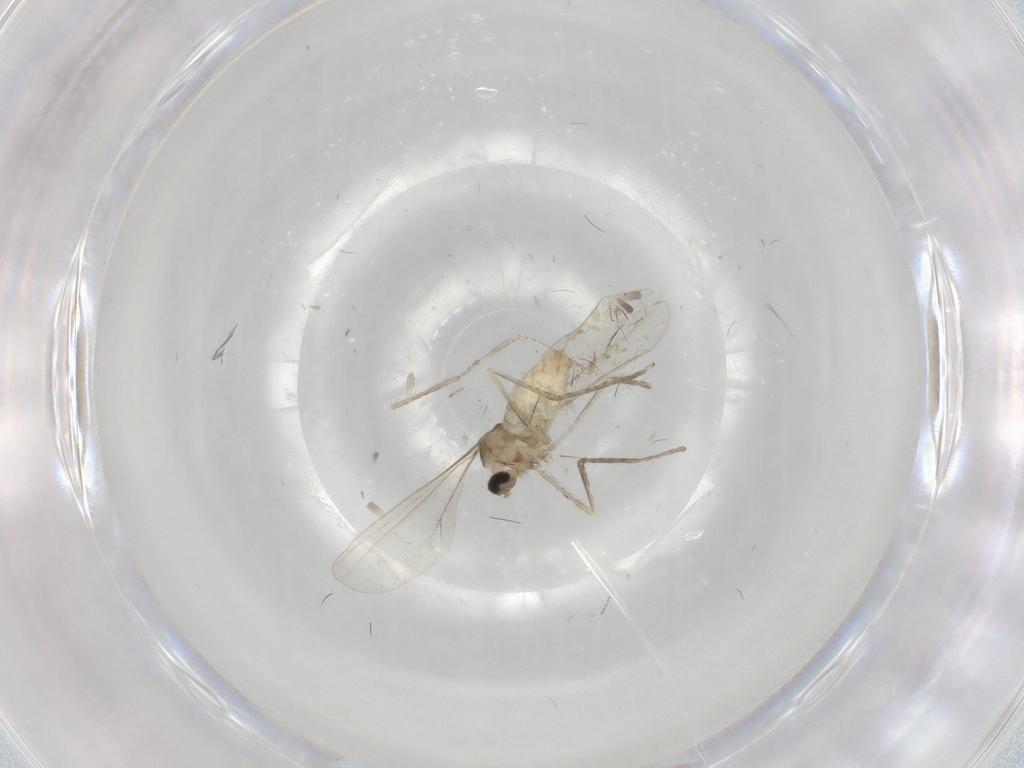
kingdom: Animalia
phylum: Arthropoda
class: Insecta
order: Diptera
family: Cecidomyiidae
